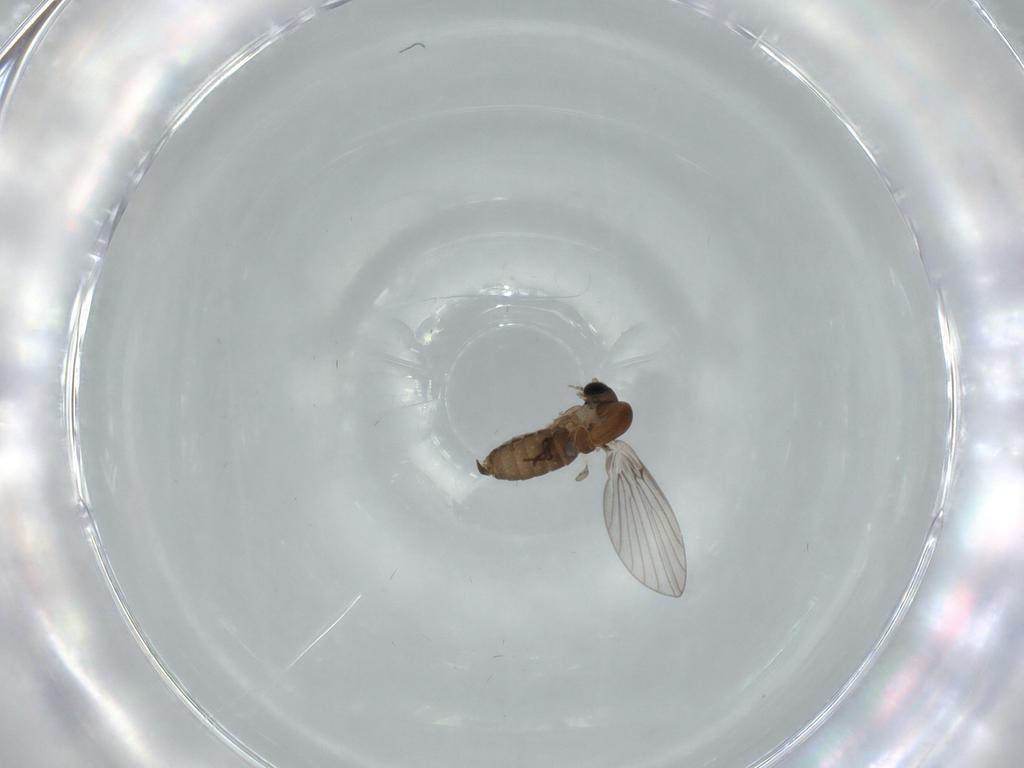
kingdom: Animalia
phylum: Arthropoda
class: Insecta
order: Diptera
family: Psychodidae
